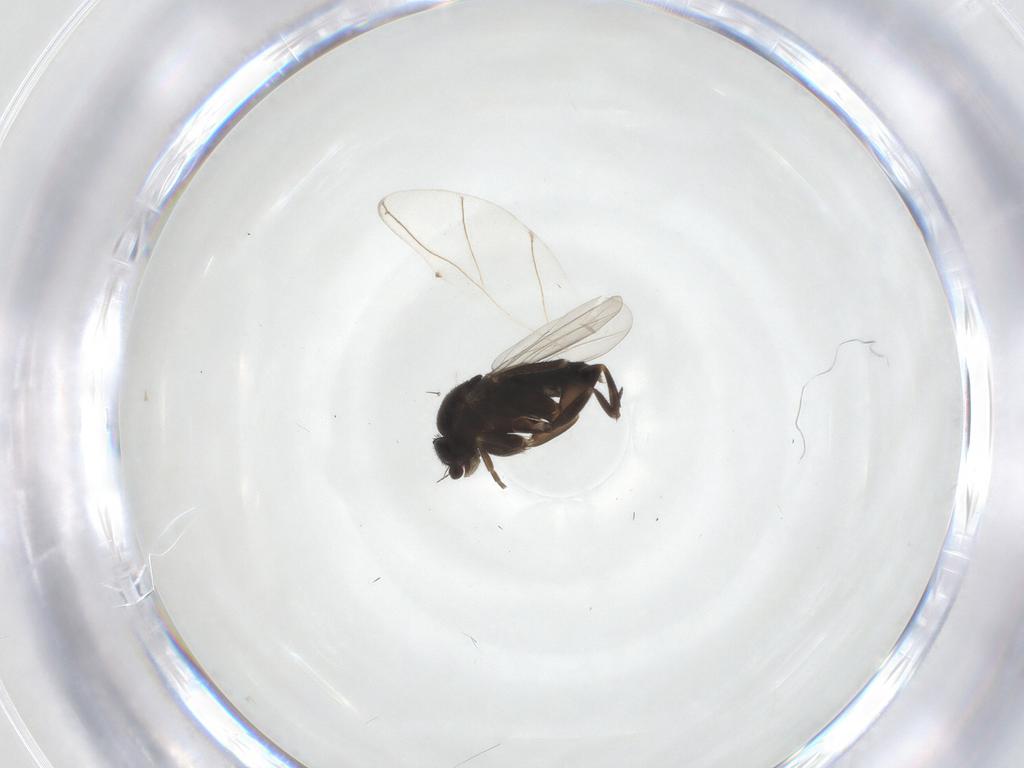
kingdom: Animalia
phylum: Arthropoda
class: Insecta
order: Diptera
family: Phoridae
